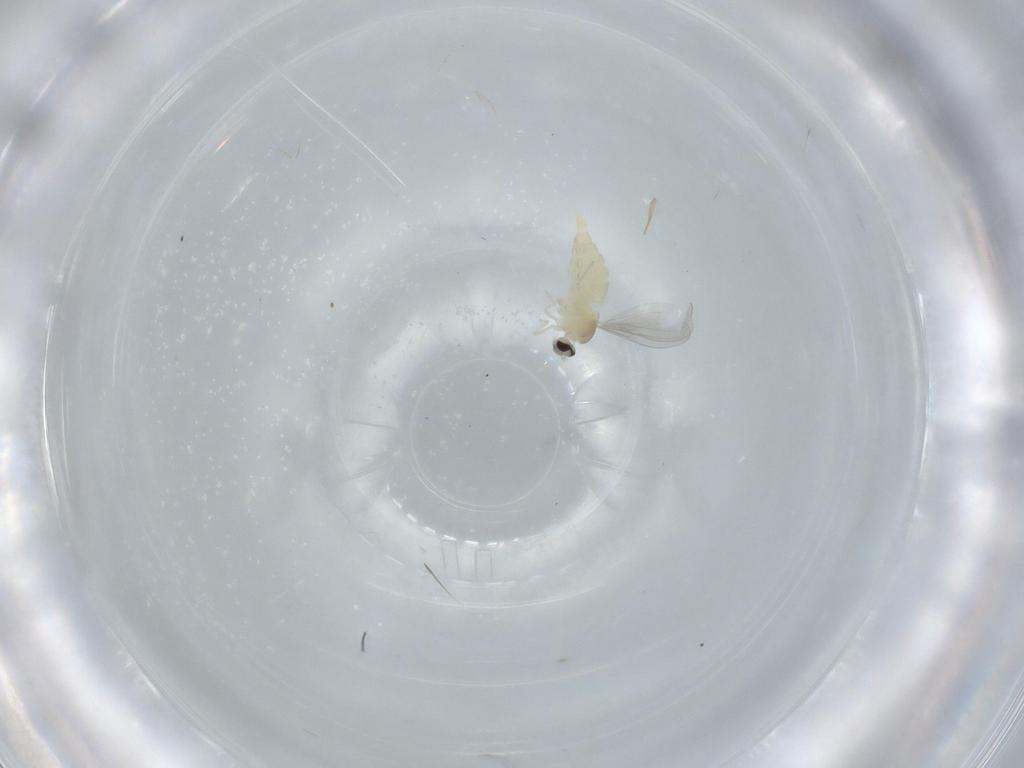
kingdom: Animalia
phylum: Arthropoda
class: Insecta
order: Diptera
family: Cecidomyiidae
